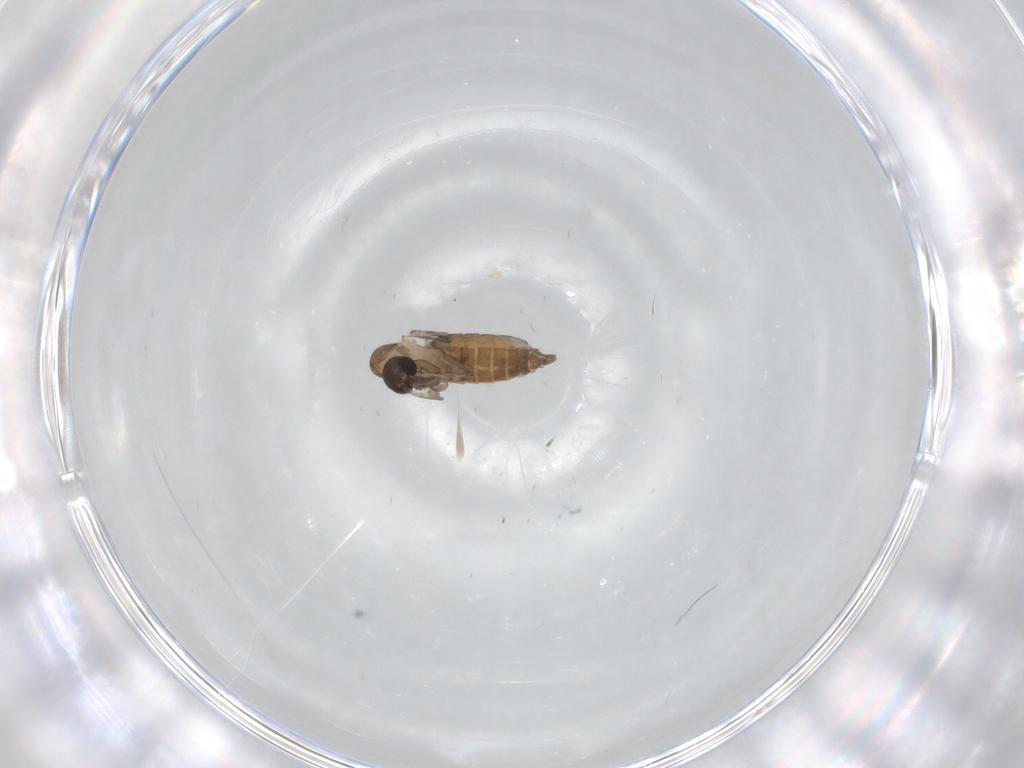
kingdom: Animalia
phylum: Arthropoda
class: Insecta
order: Diptera
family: Psychodidae
